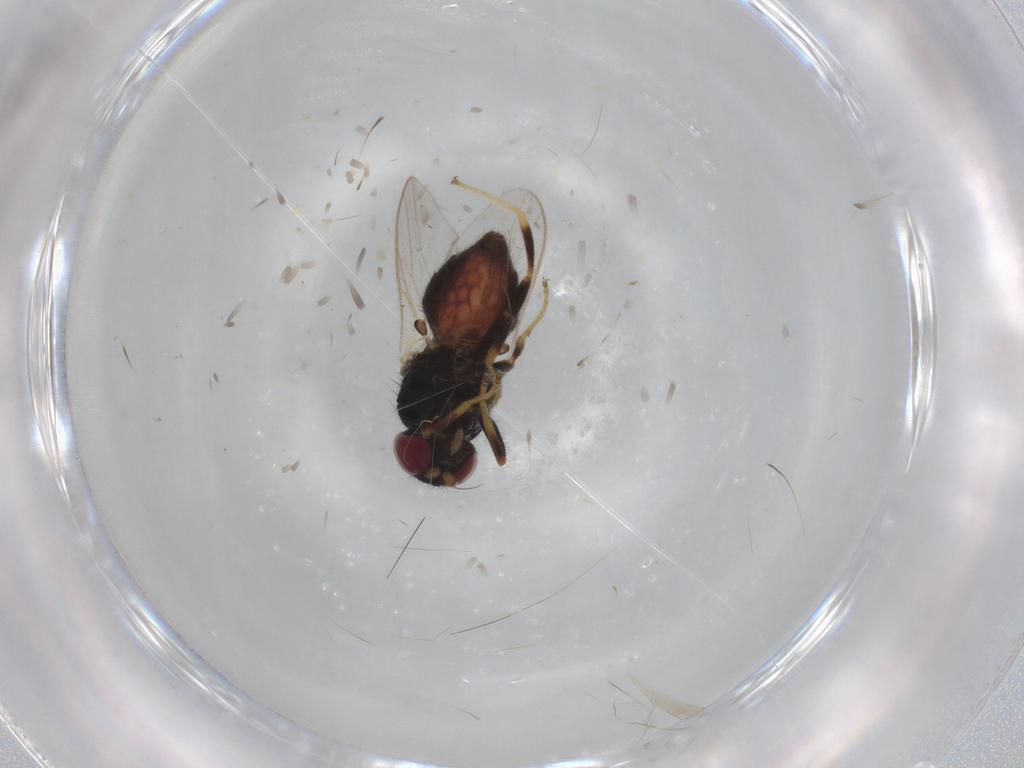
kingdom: Animalia
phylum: Arthropoda
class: Insecta
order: Diptera
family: Chloropidae
